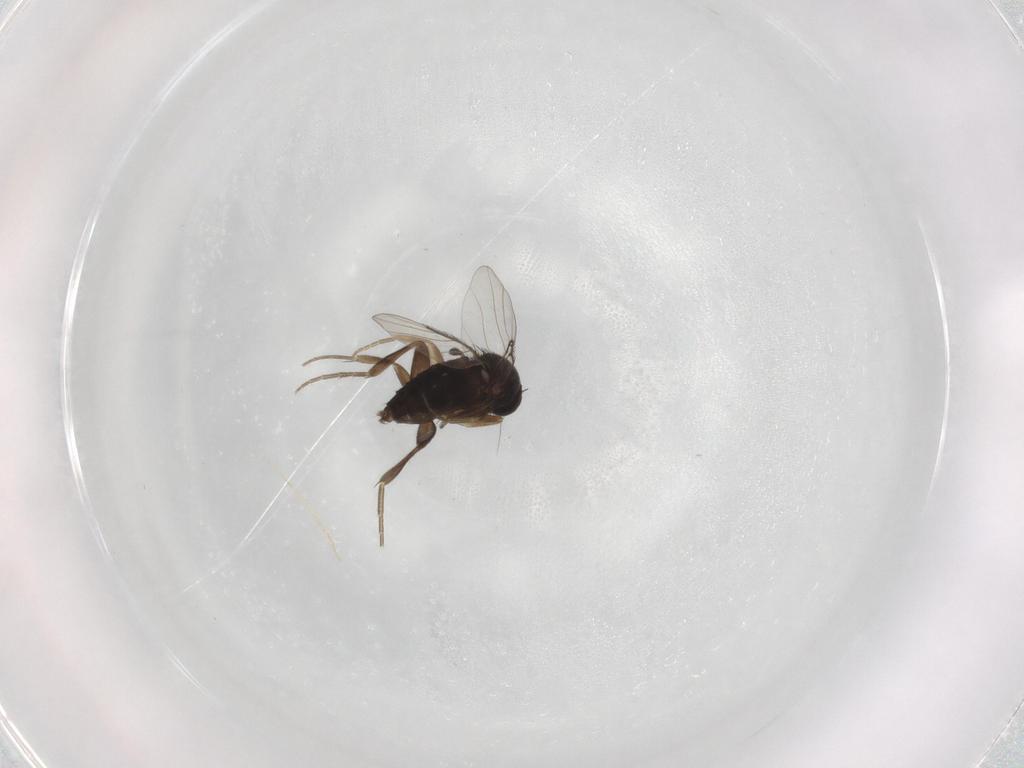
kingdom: Animalia
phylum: Arthropoda
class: Insecta
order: Diptera
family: Phoridae
